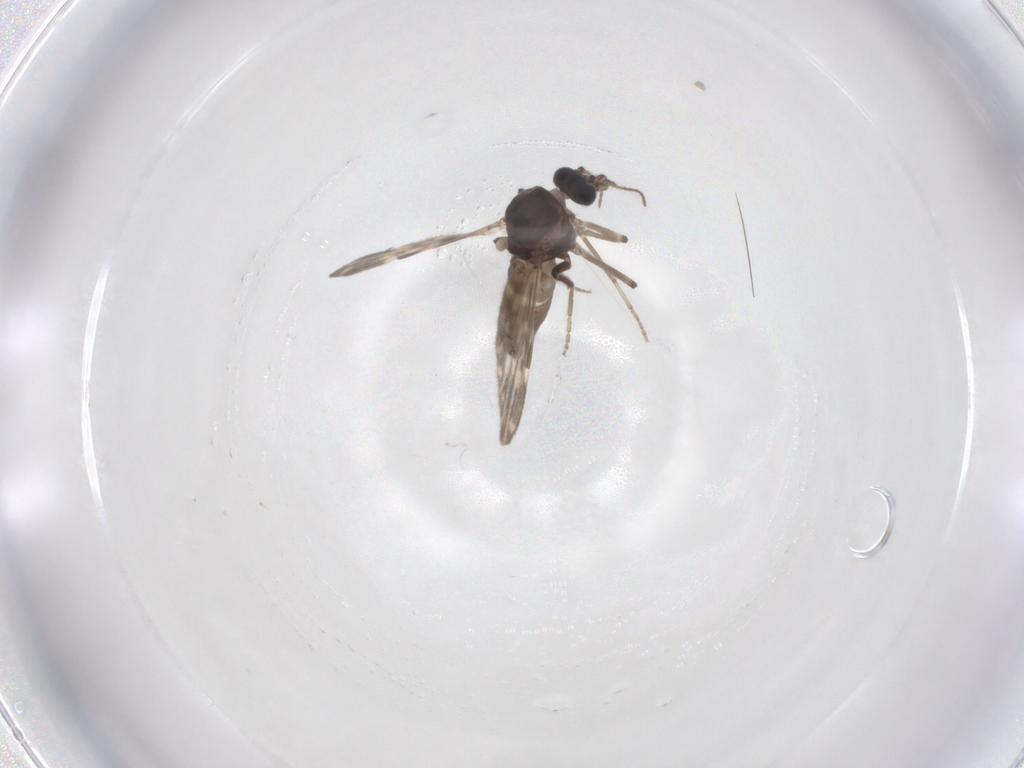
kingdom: Animalia
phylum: Arthropoda
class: Insecta
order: Diptera
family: Ceratopogonidae
